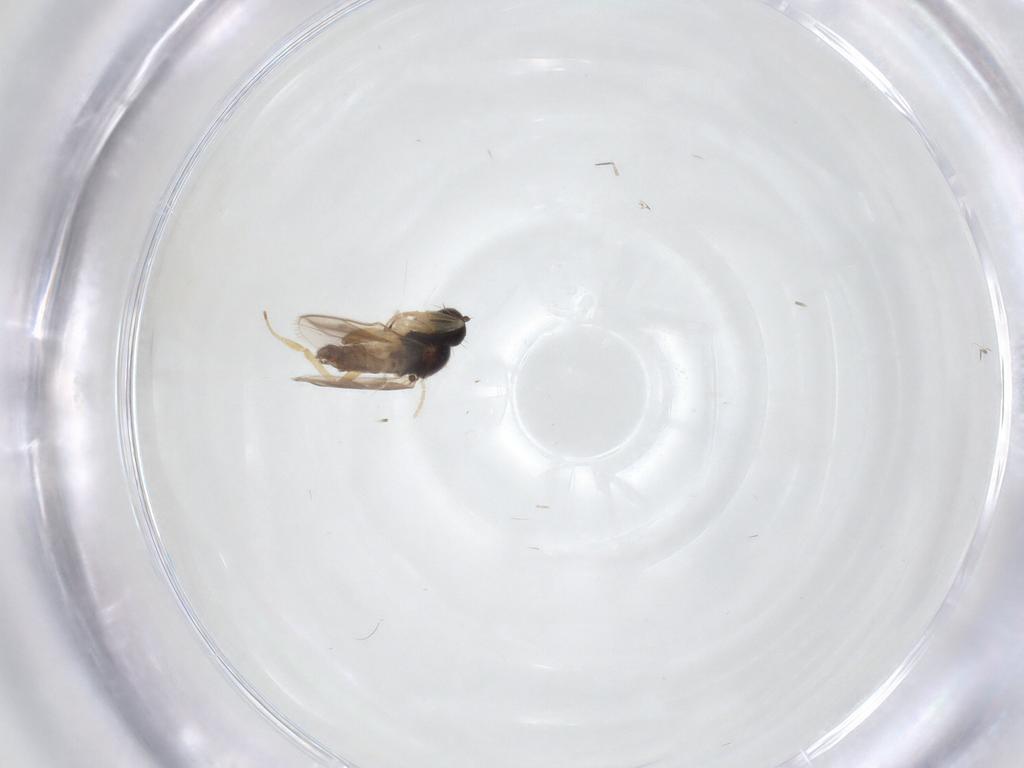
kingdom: Animalia
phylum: Arthropoda
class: Insecta
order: Diptera
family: Hybotidae
